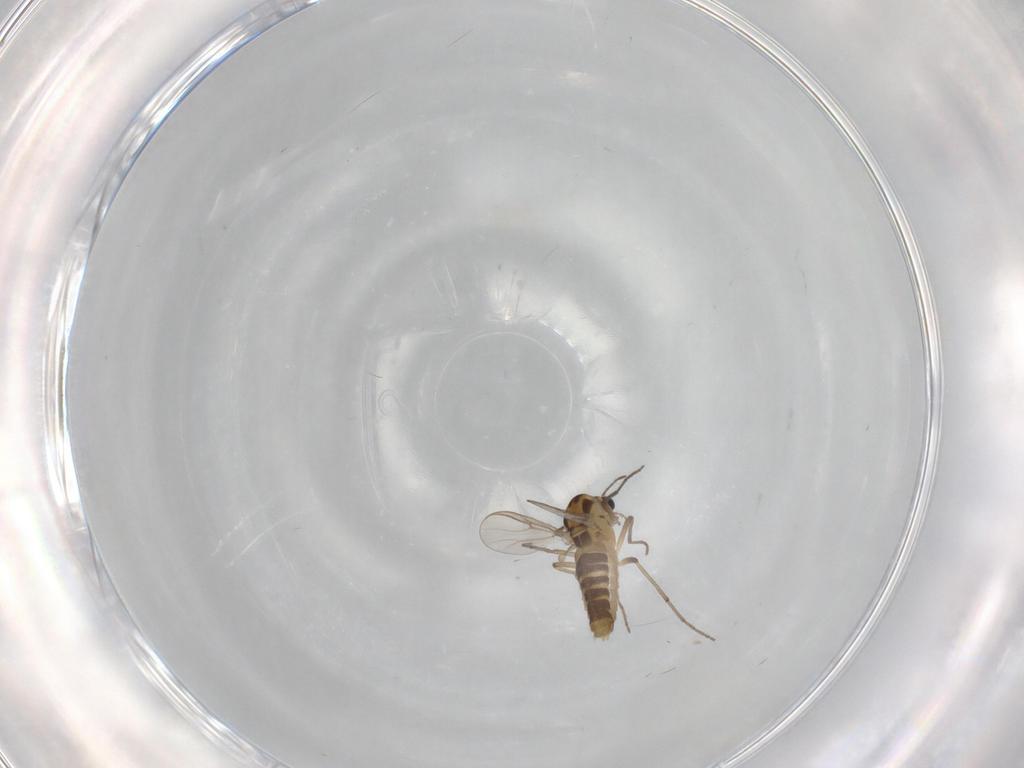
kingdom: Animalia
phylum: Arthropoda
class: Insecta
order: Diptera
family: Chironomidae
